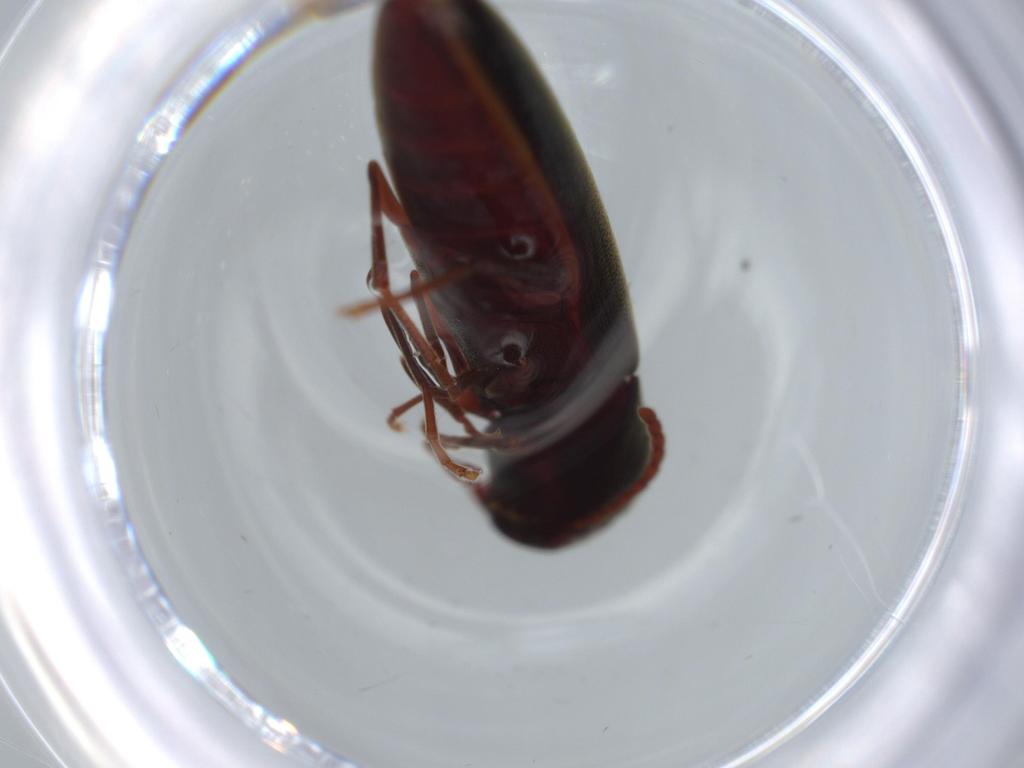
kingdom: Animalia
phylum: Arthropoda
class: Insecta
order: Coleoptera
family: Eucnemidae
